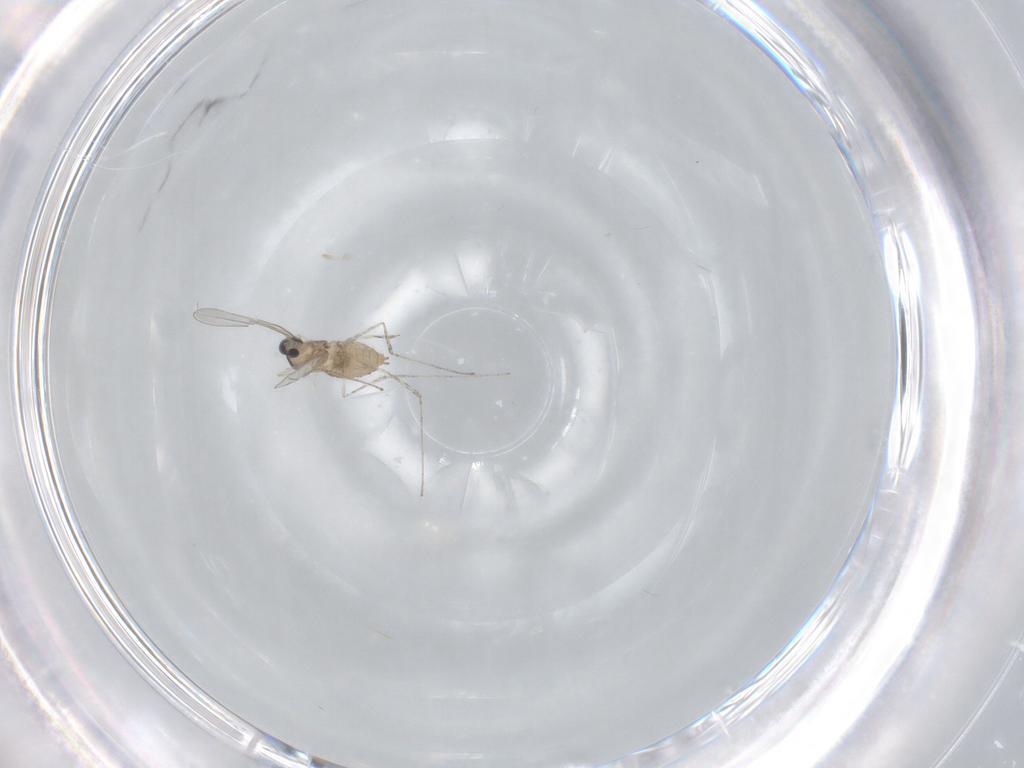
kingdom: Animalia
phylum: Arthropoda
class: Insecta
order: Diptera
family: Cecidomyiidae
